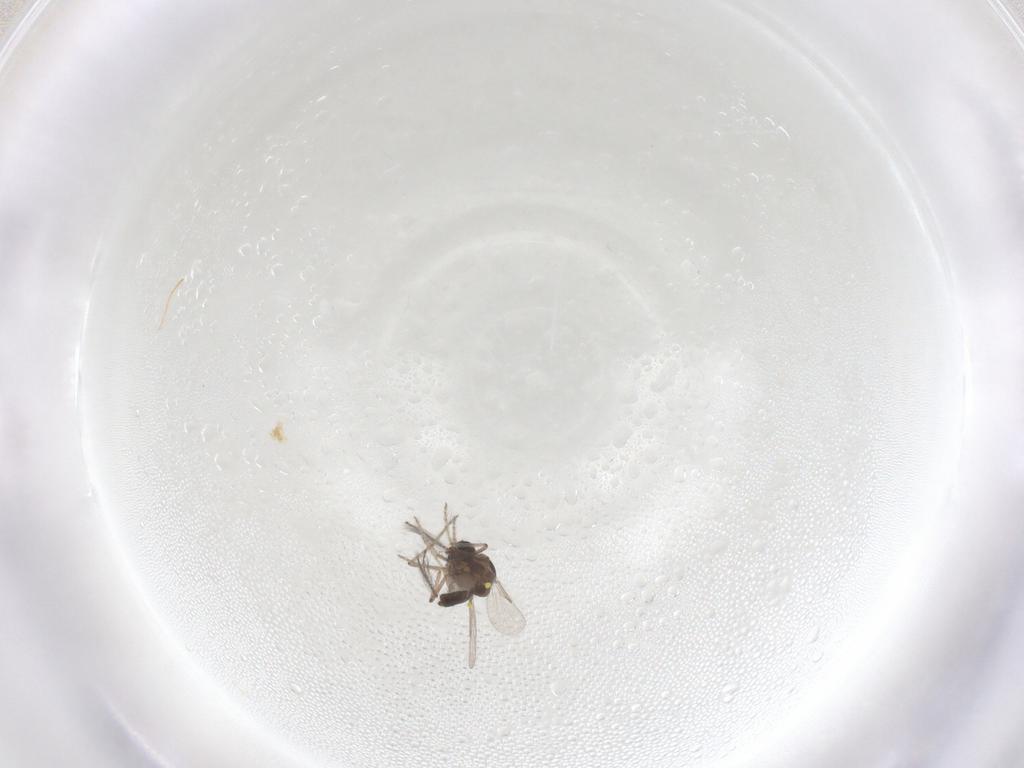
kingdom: Animalia
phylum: Arthropoda
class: Insecta
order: Diptera
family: Ceratopogonidae
